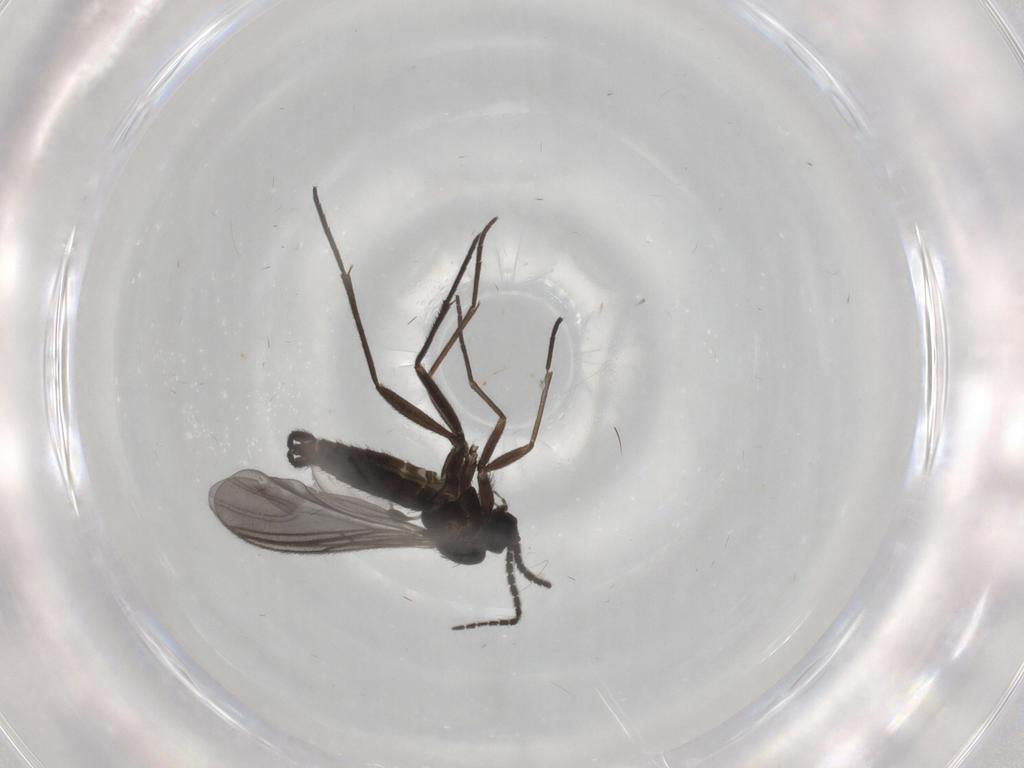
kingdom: Animalia
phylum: Arthropoda
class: Insecta
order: Diptera
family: Sciaridae
